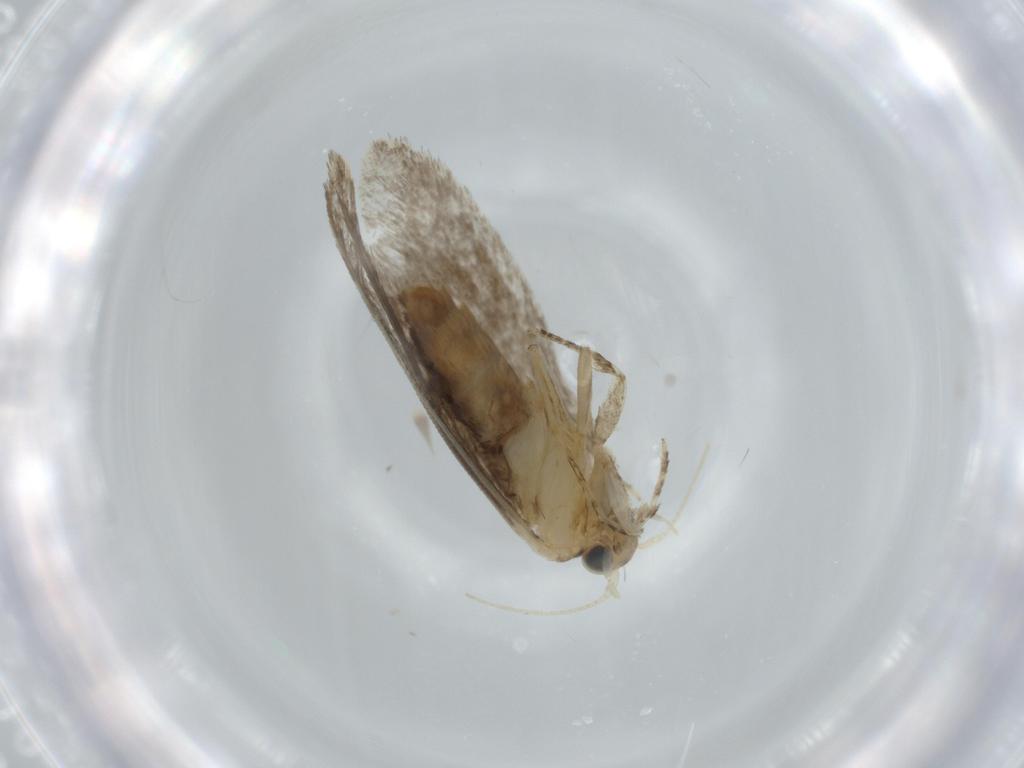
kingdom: Animalia
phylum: Arthropoda
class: Insecta
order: Lepidoptera
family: Tineidae
